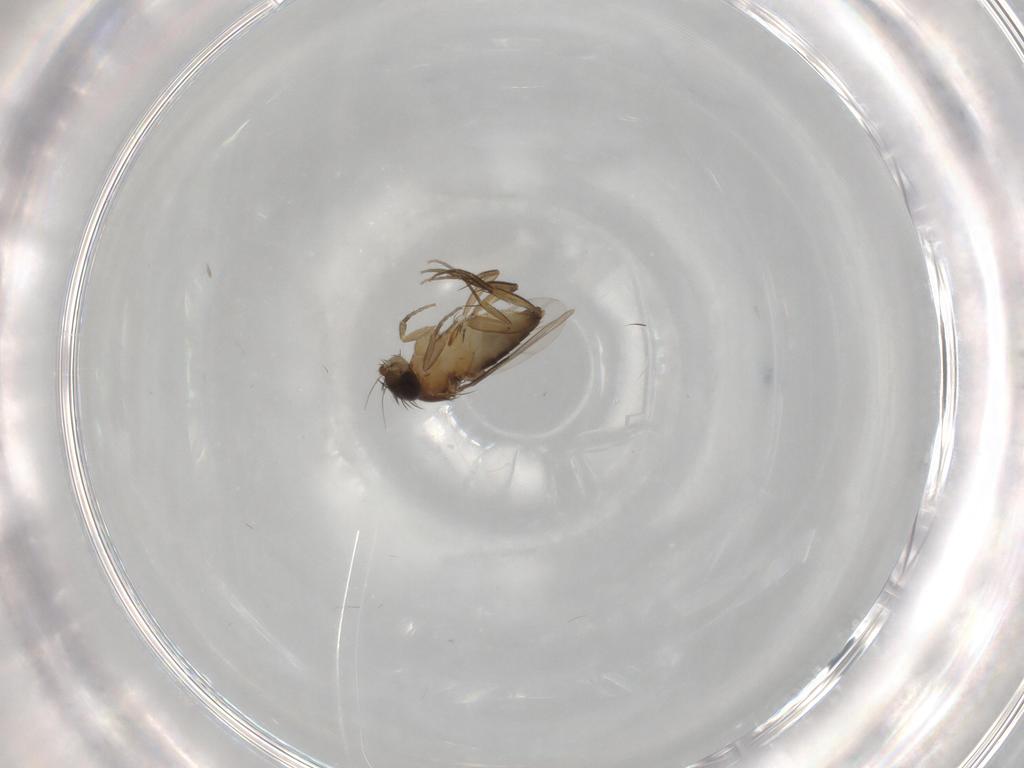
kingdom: Animalia
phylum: Arthropoda
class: Insecta
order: Diptera
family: Phoridae
